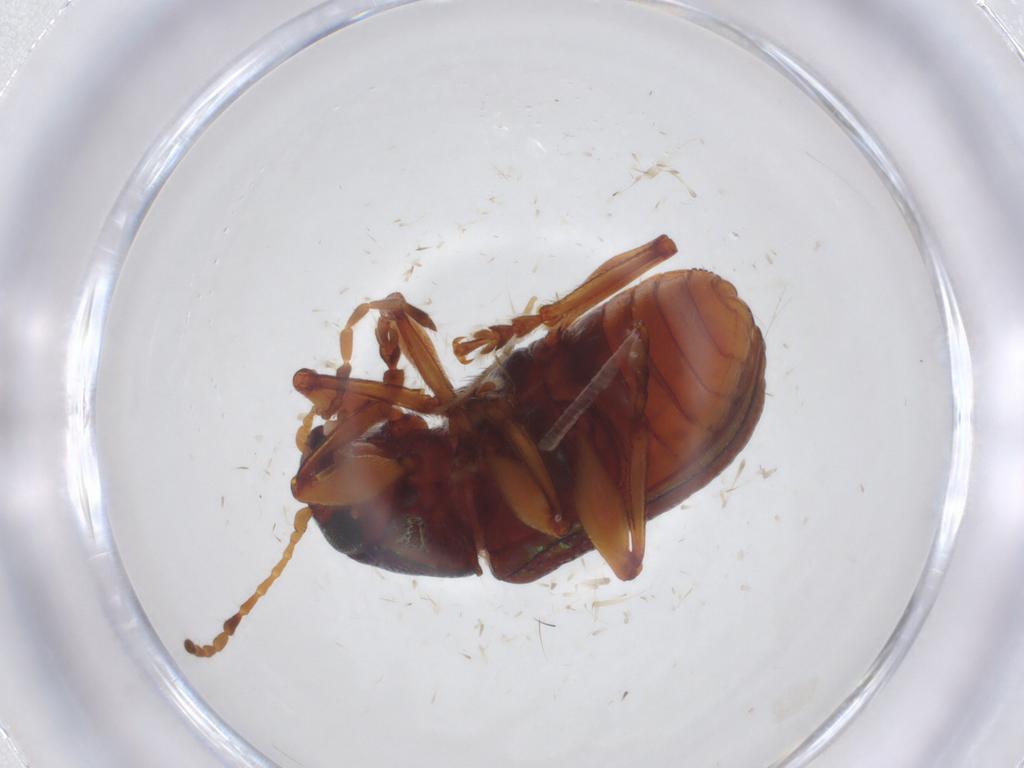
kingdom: Animalia
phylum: Arthropoda
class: Insecta
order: Coleoptera
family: Chrysomelidae
